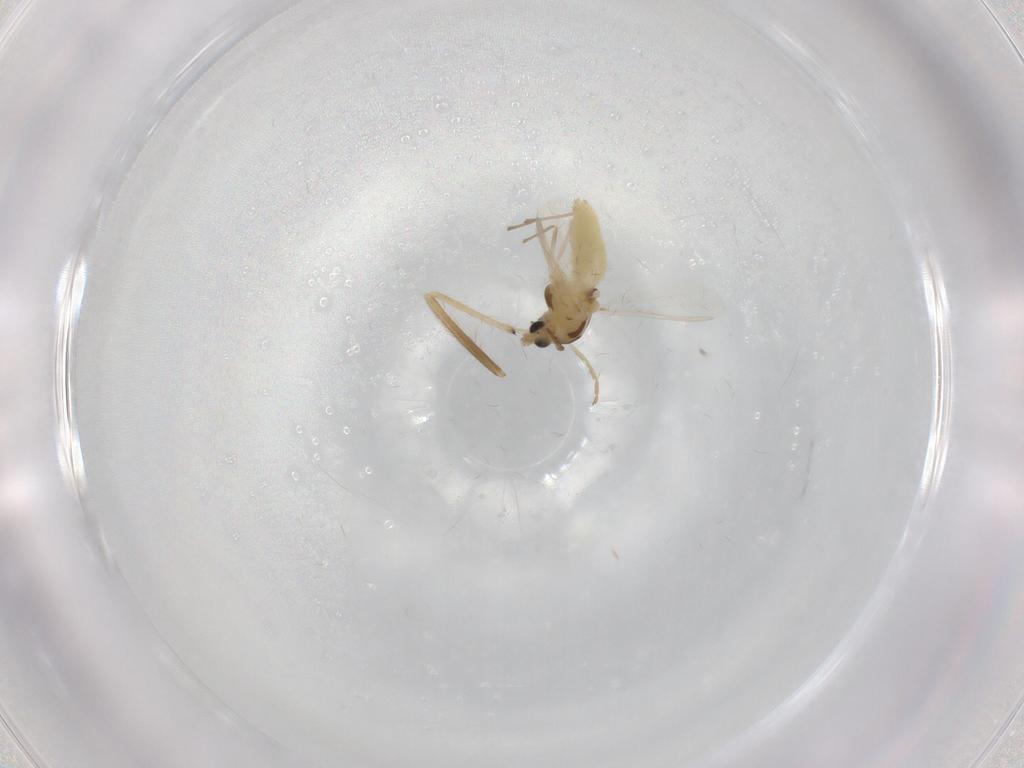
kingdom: Animalia
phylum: Arthropoda
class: Insecta
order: Diptera
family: Chironomidae
